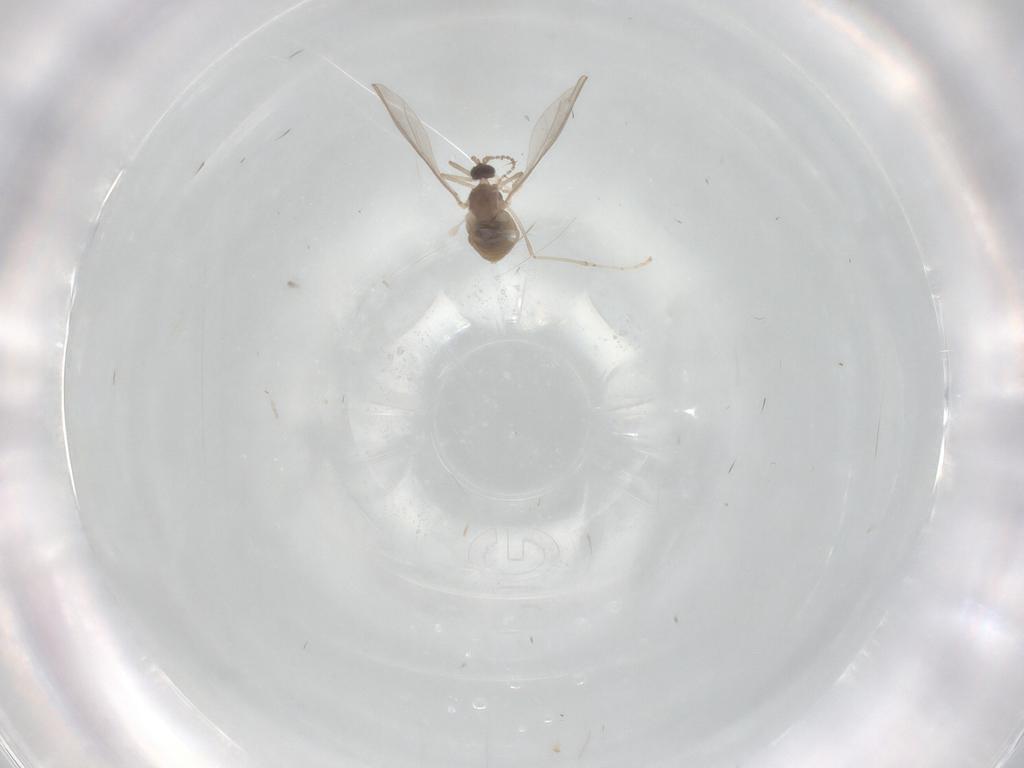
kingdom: Animalia
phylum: Arthropoda
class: Insecta
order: Diptera
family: Cecidomyiidae
